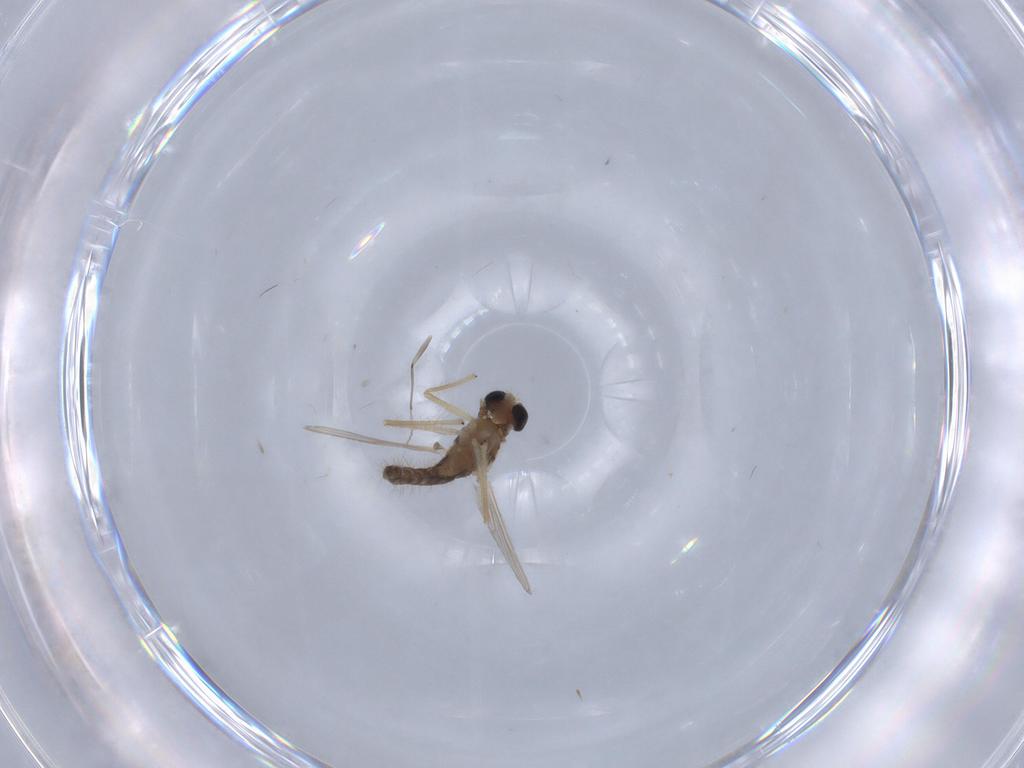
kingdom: Animalia
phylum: Arthropoda
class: Insecta
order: Diptera
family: Chironomidae
